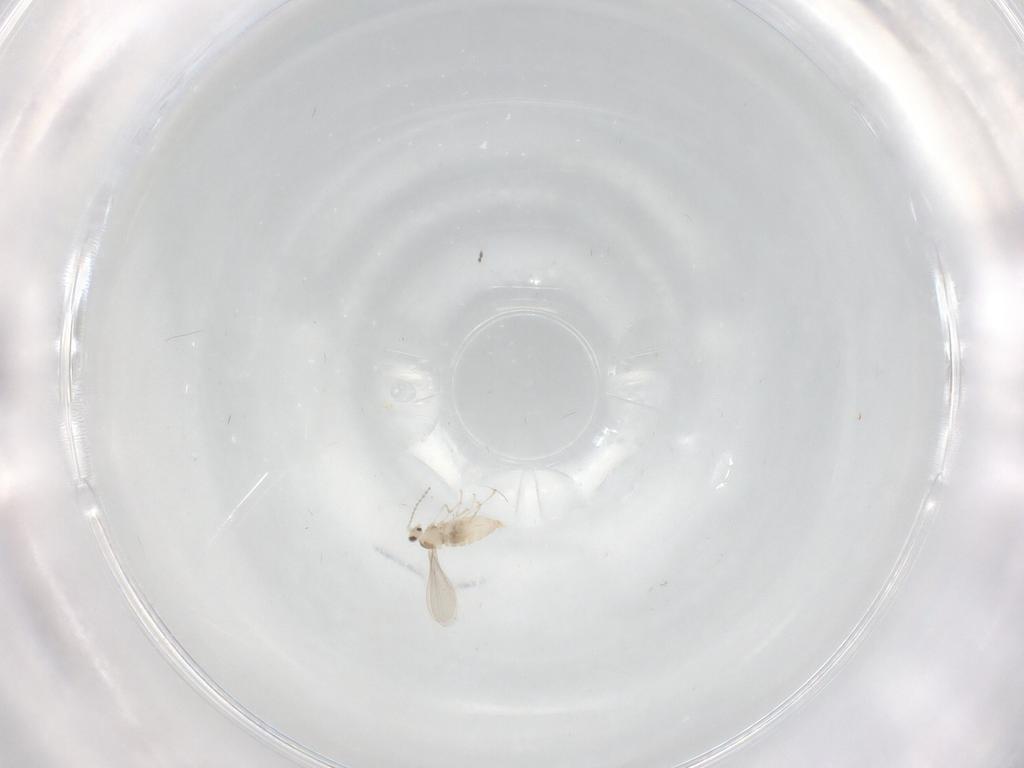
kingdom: Animalia
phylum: Arthropoda
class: Insecta
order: Diptera
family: Cecidomyiidae
